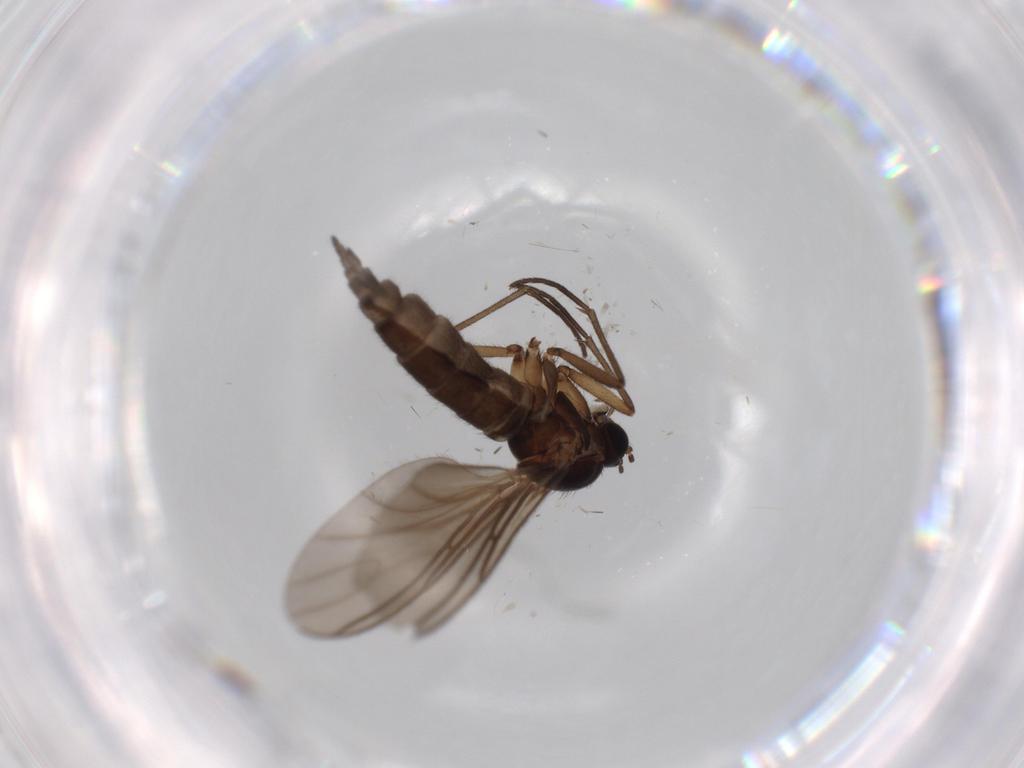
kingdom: Animalia
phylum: Arthropoda
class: Insecta
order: Diptera
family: Sciaridae
